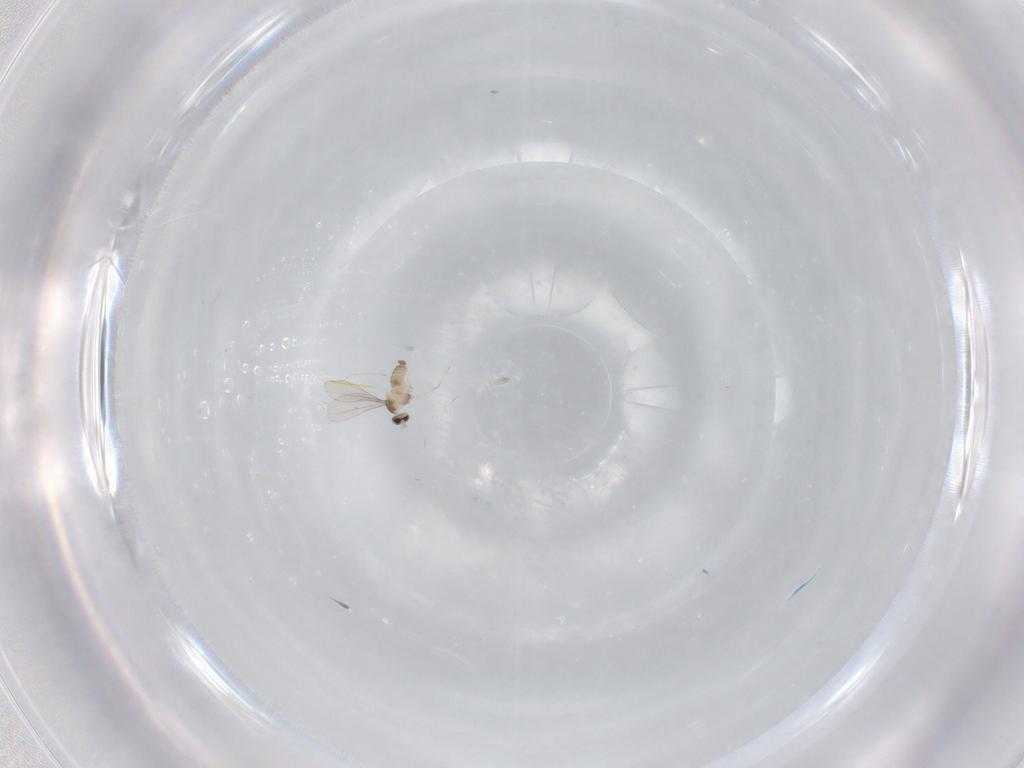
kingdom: Animalia
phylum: Arthropoda
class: Insecta
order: Diptera
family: Cecidomyiidae
